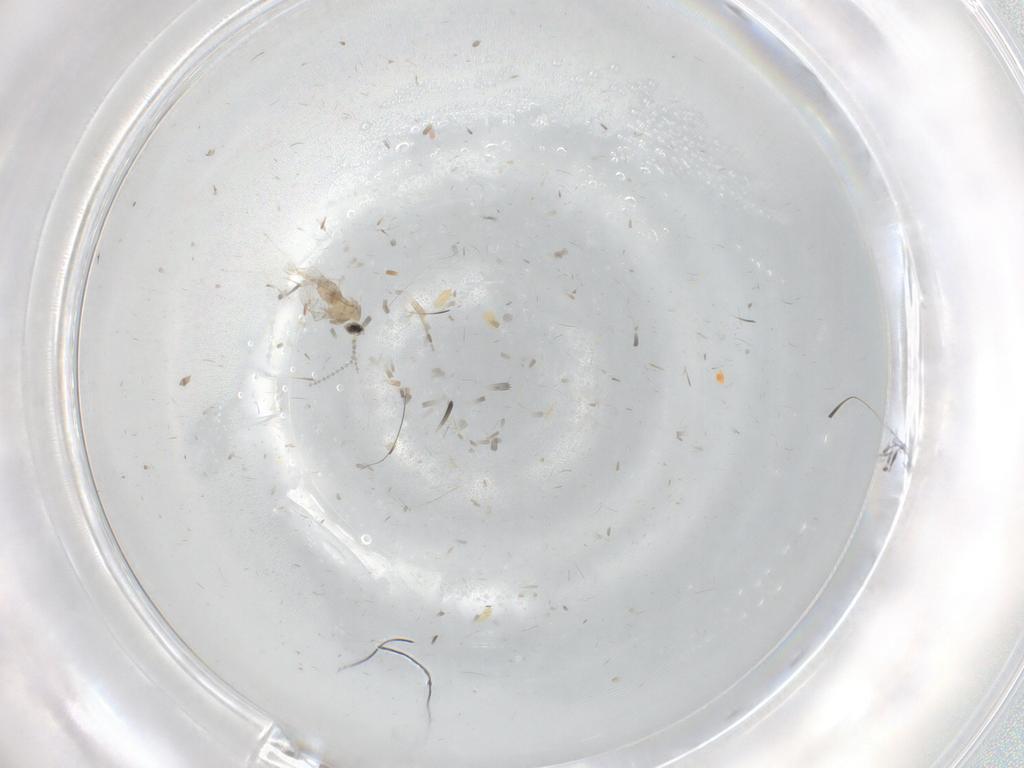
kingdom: Animalia
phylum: Arthropoda
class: Insecta
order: Diptera
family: Cecidomyiidae
